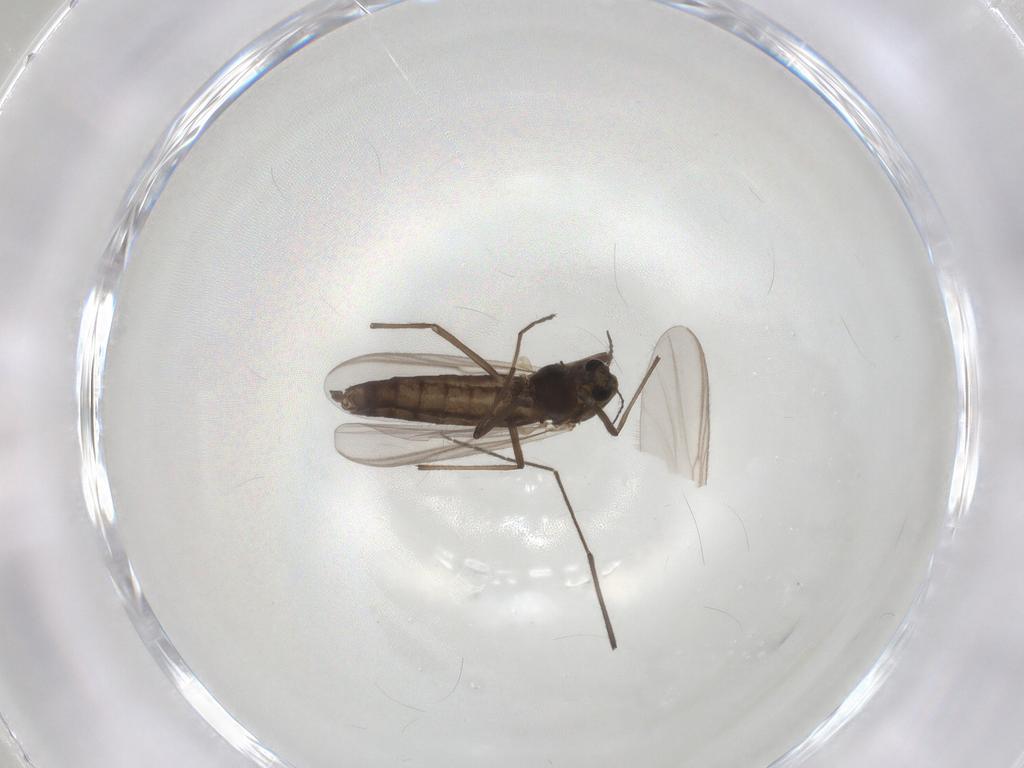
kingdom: Animalia
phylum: Arthropoda
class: Insecta
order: Diptera
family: Chironomidae
